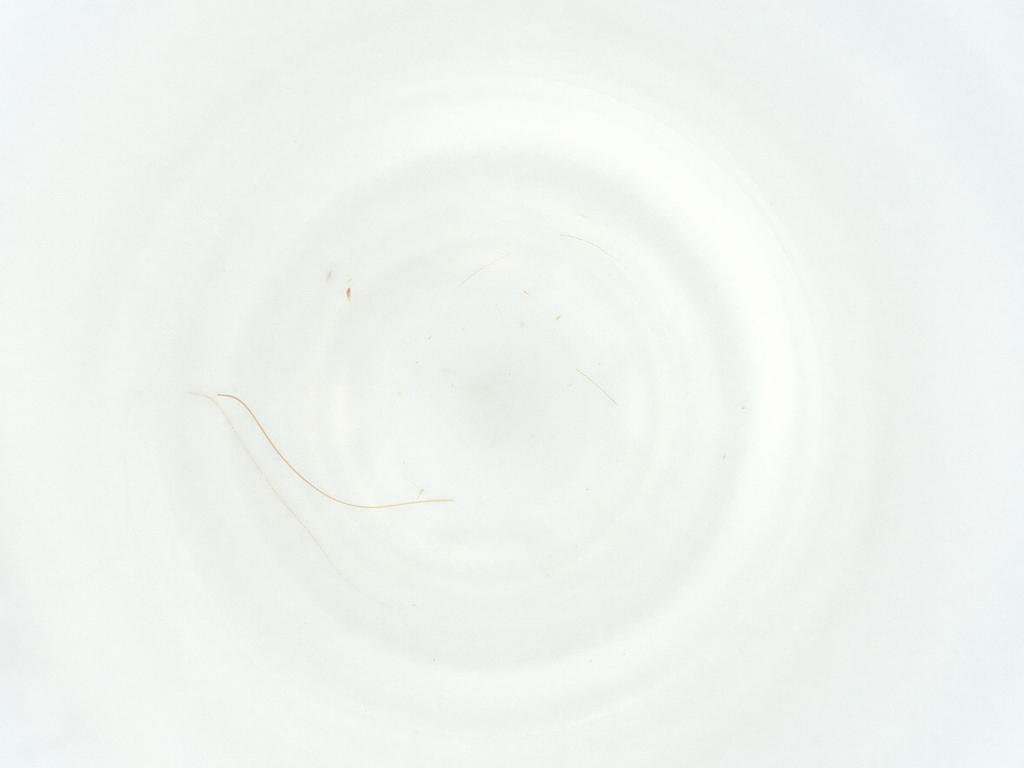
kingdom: Animalia
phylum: Arthropoda
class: Insecta
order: Hymenoptera
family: Mymaridae
